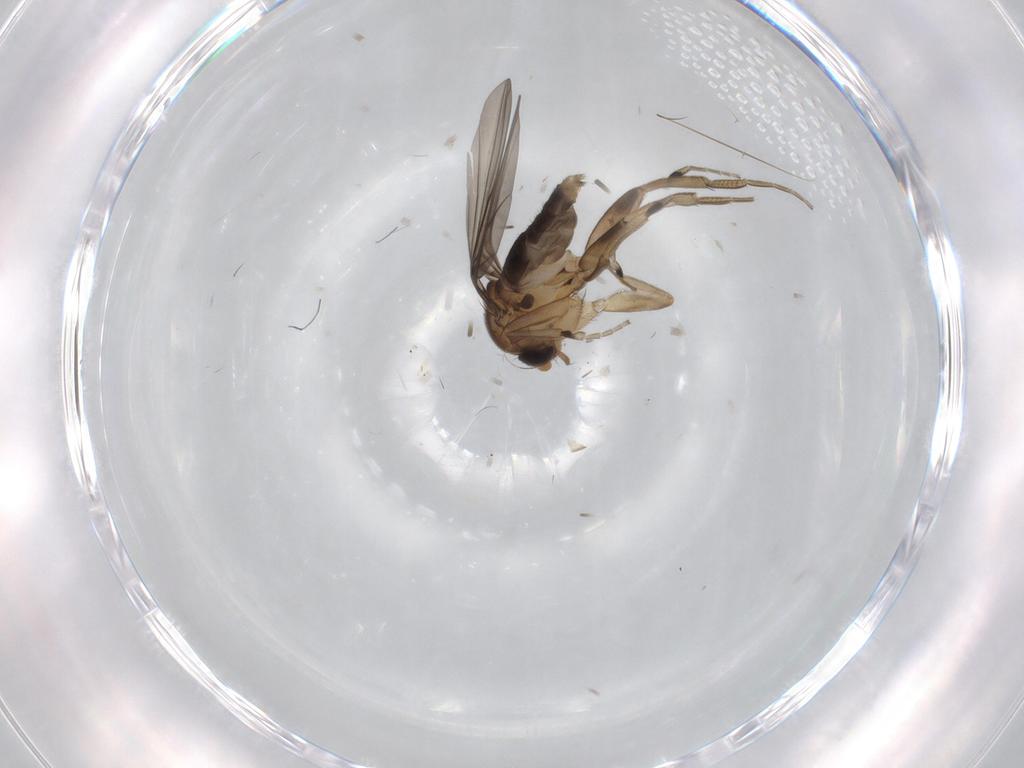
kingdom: Animalia
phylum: Arthropoda
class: Insecta
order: Diptera
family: Phoridae
